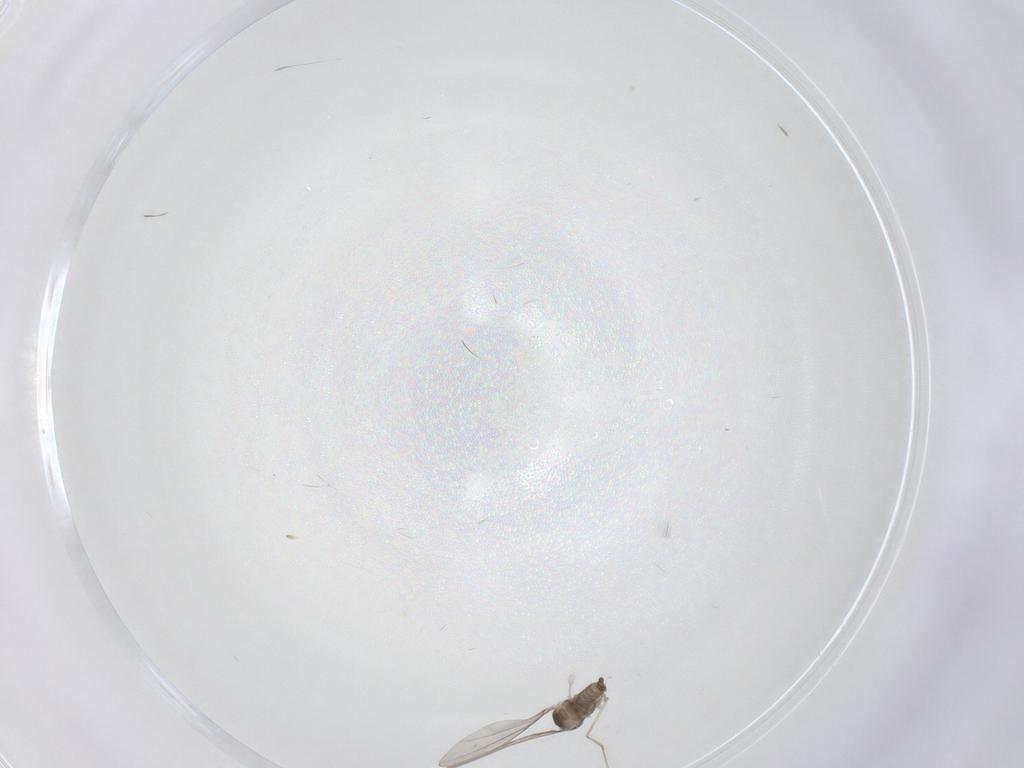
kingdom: Animalia
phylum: Arthropoda
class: Insecta
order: Diptera
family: Cecidomyiidae
